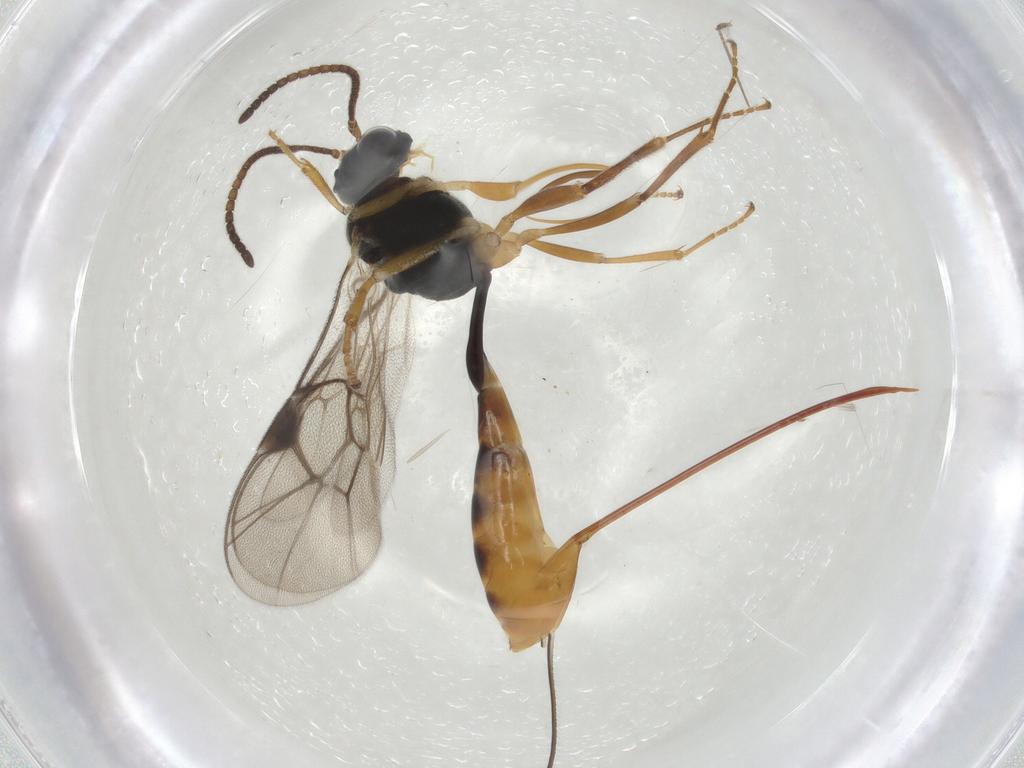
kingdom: Animalia
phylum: Arthropoda
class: Insecta
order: Hymenoptera
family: Ichneumonidae
